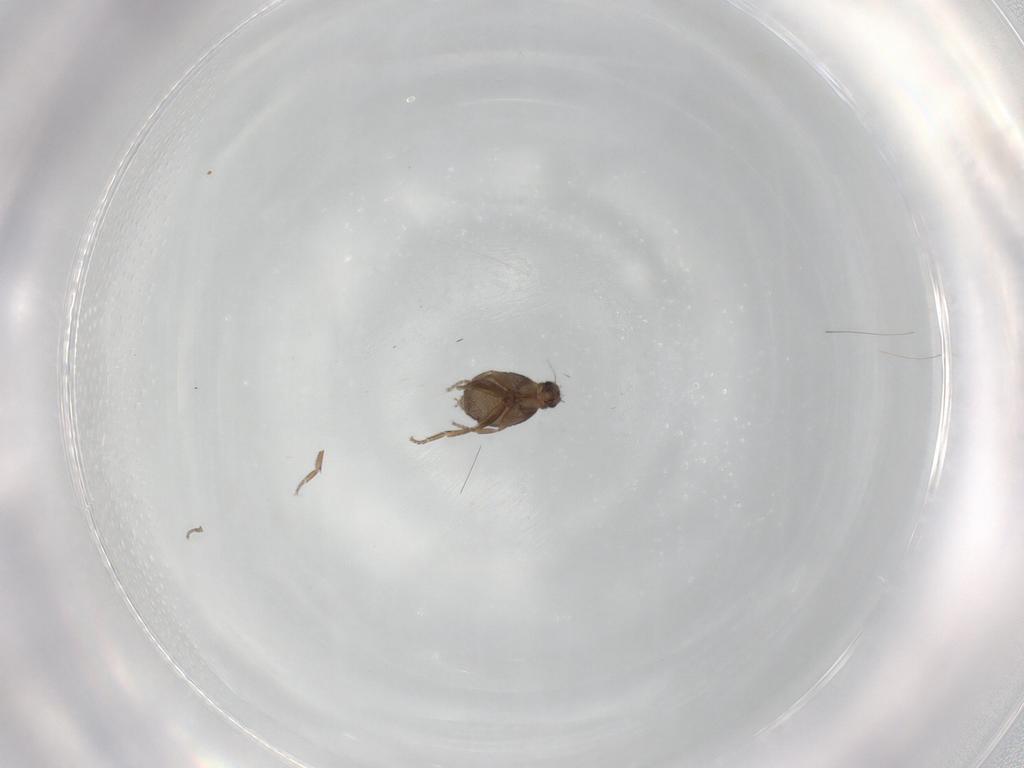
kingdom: Animalia
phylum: Arthropoda
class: Insecta
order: Diptera
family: Phoridae
